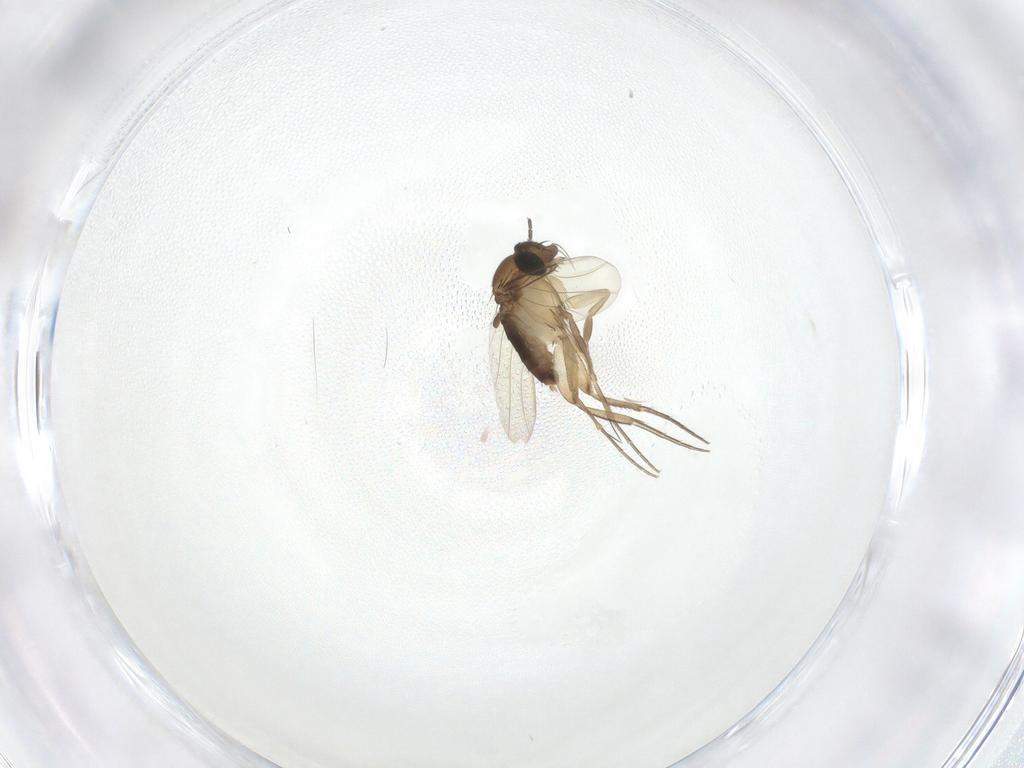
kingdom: Animalia
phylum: Arthropoda
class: Insecta
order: Diptera
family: Phoridae
